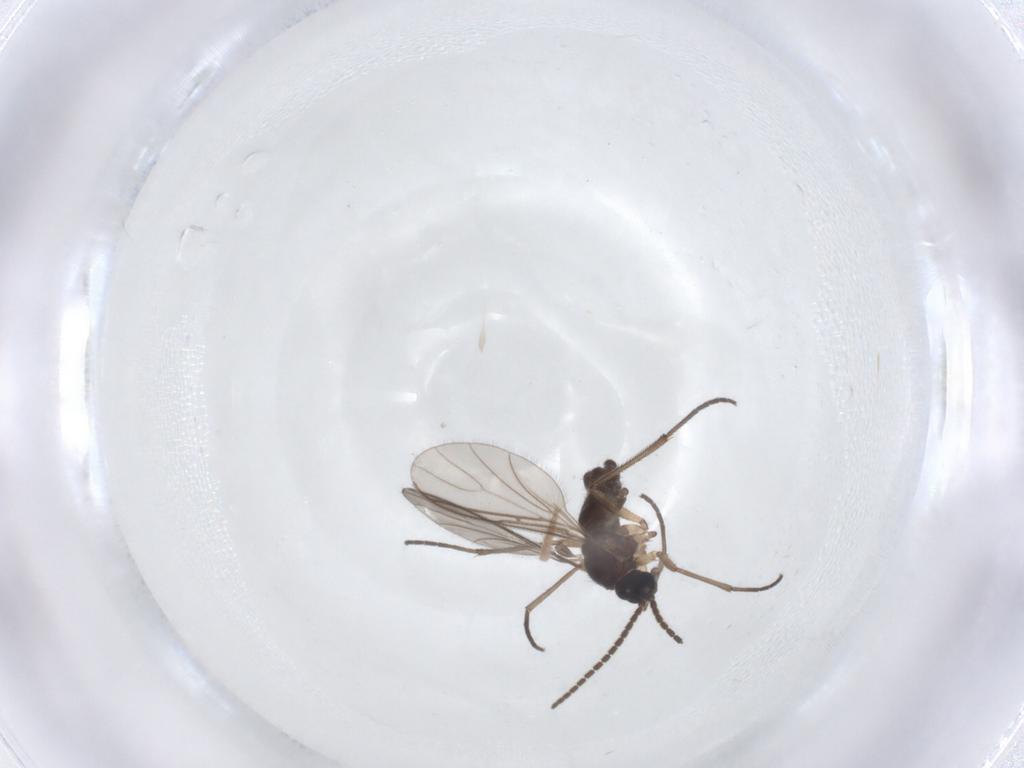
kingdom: Animalia
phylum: Arthropoda
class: Insecta
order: Diptera
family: Sciaridae
